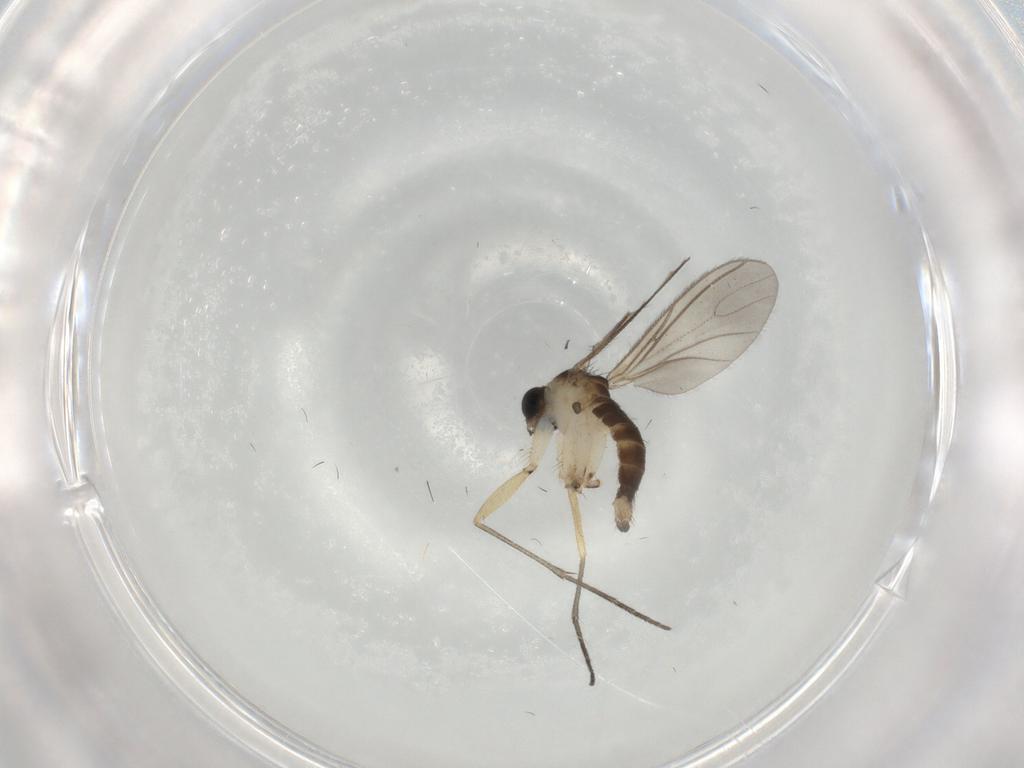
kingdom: Animalia
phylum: Arthropoda
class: Insecta
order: Diptera
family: Sciaridae
